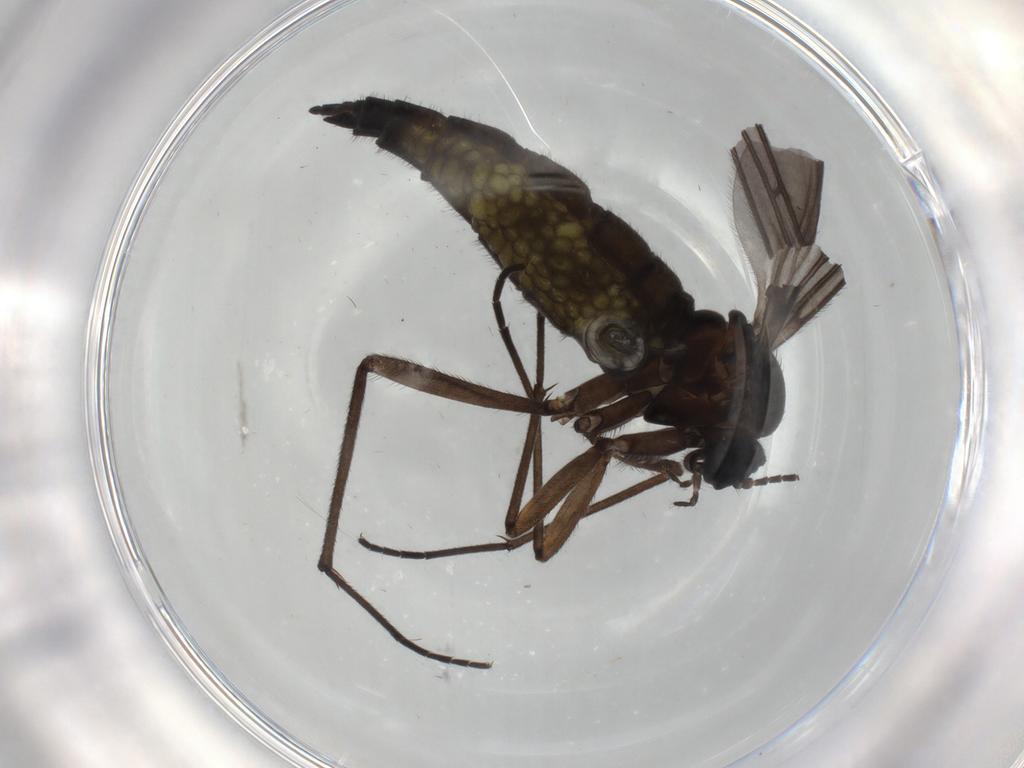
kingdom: Animalia
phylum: Arthropoda
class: Insecta
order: Diptera
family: Sciaridae
